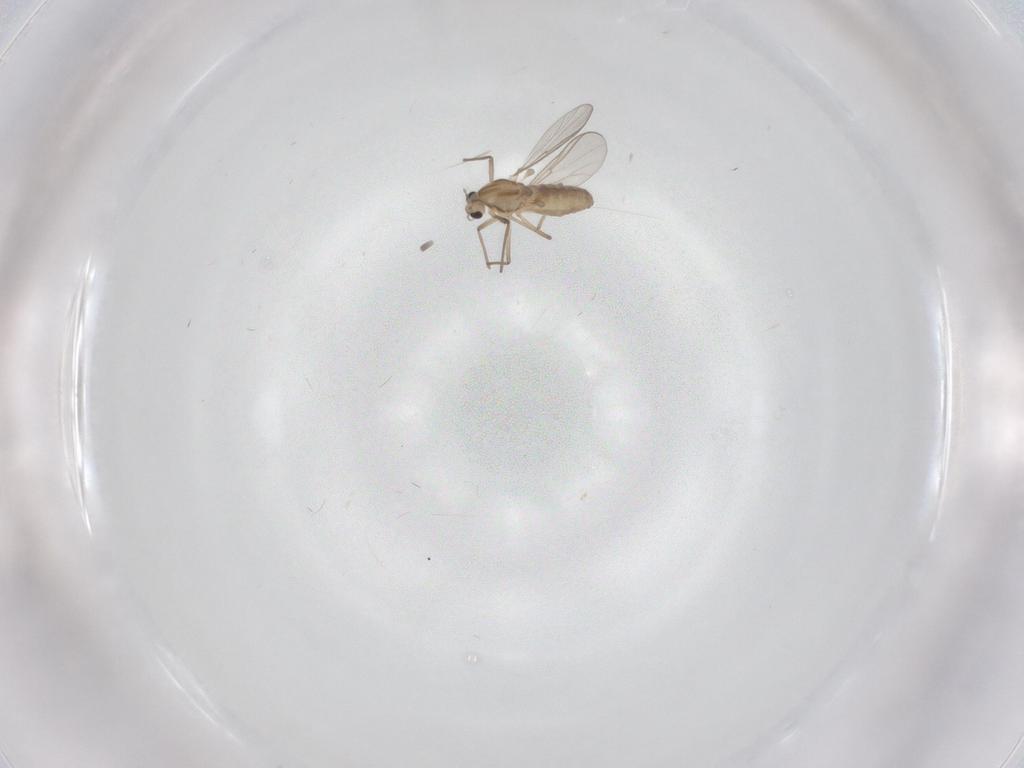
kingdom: Animalia
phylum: Arthropoda
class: Insecta
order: Diptera
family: Chironomidae
